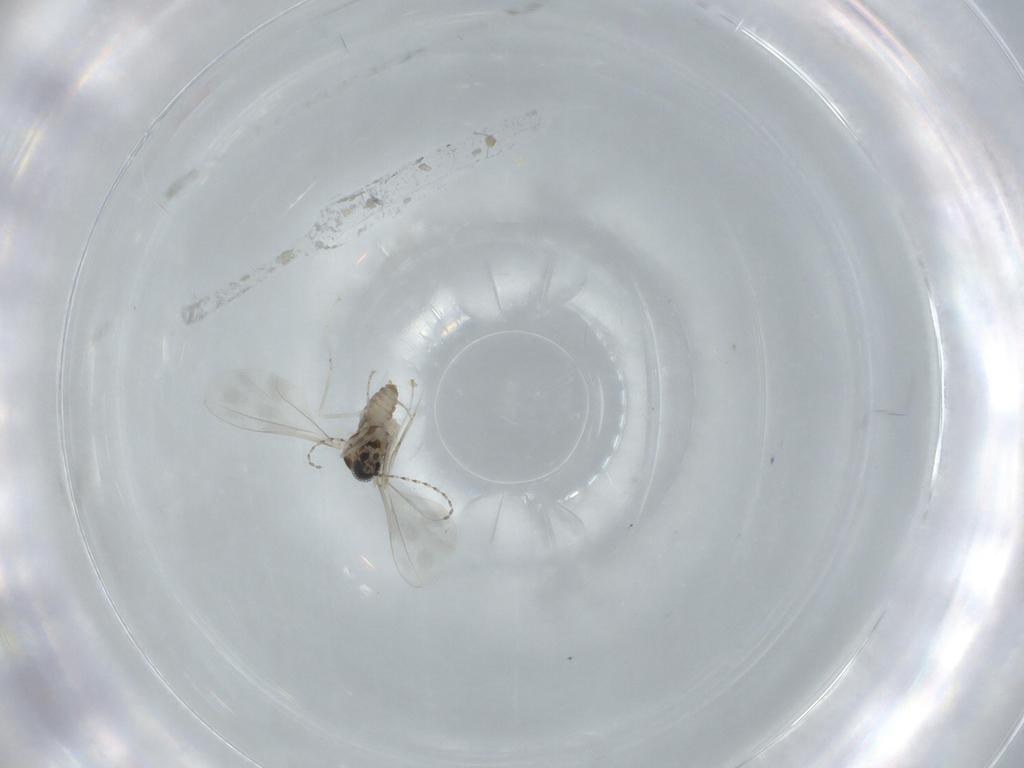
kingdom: Animalia
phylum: Arthropoda
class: Insecta
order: Diptera
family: Cecidomyiidae
